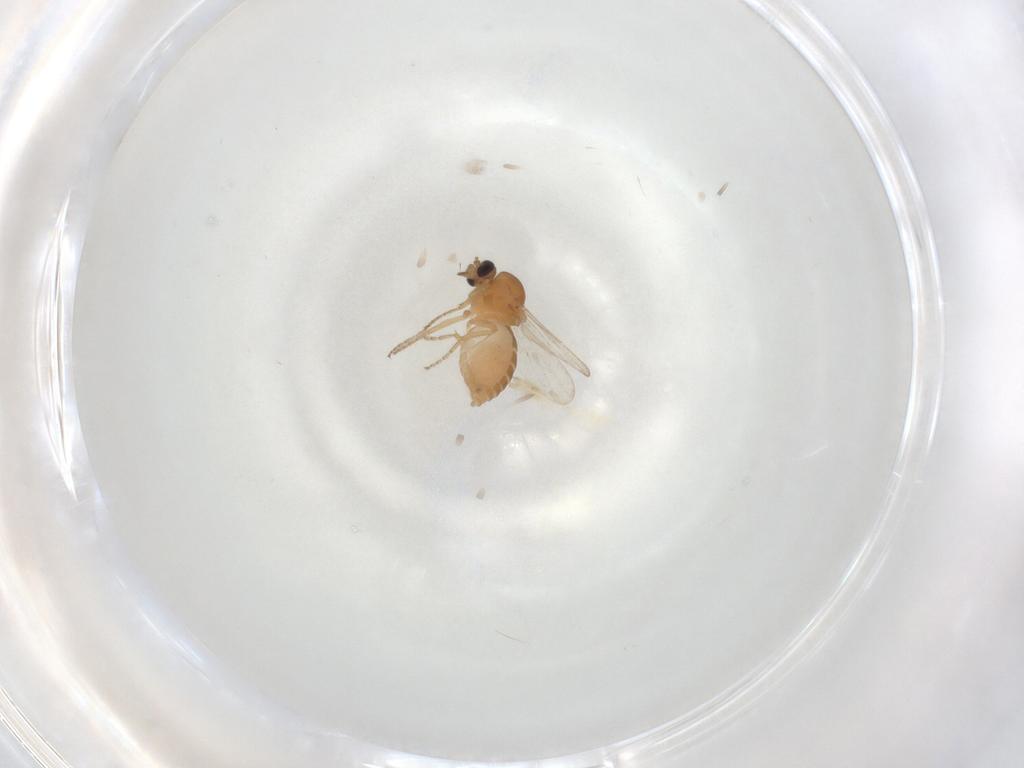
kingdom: Animalia
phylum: Arthropoda
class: Insecta
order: Diptera
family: Ceratopogonidae
